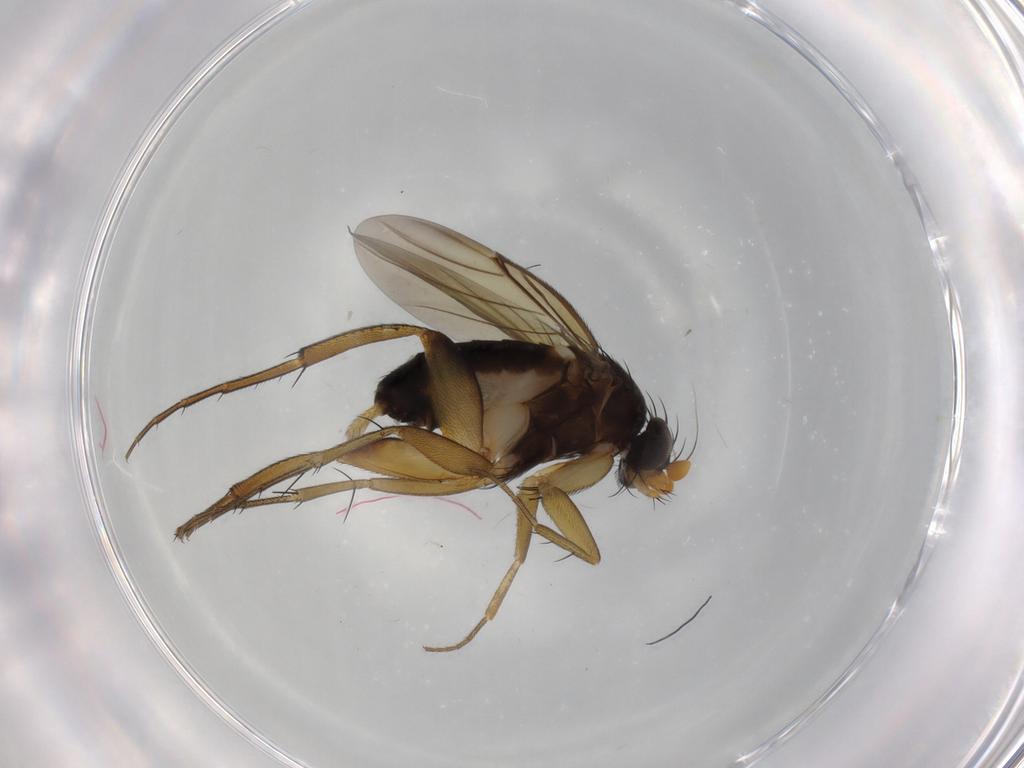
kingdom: Animalia
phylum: Arthropoda
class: Insecta
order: Diptera
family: Phoridae
